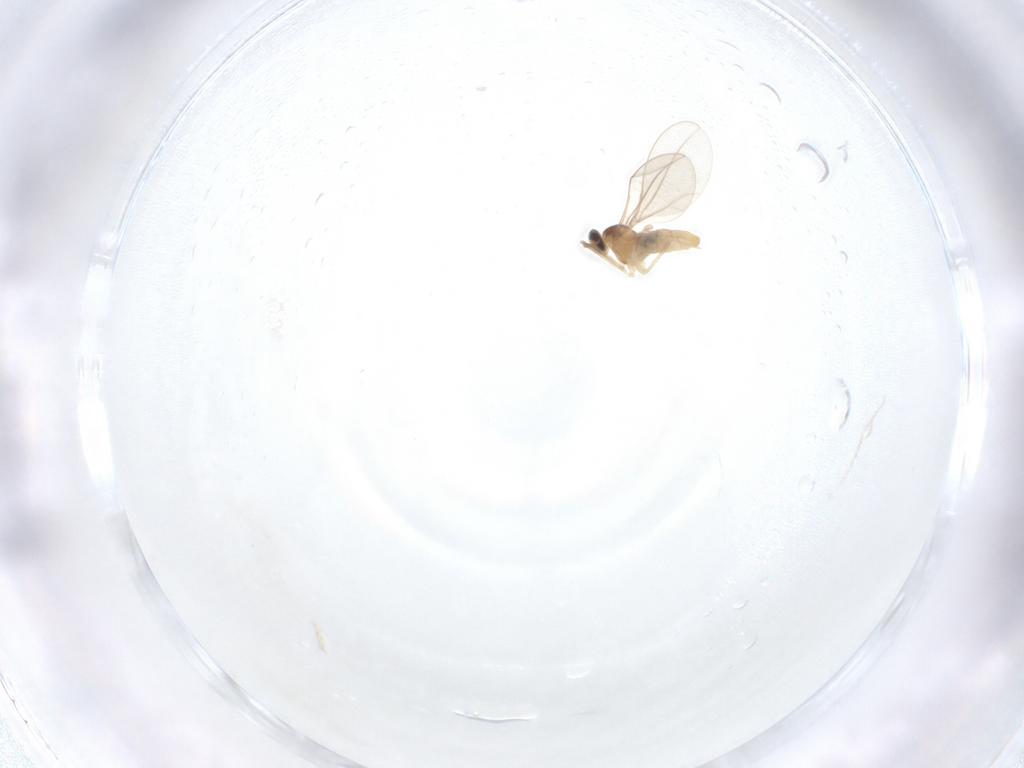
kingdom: Animalia
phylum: Arthropoda
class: Insecta
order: Diptera
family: Cecidomyiidae
